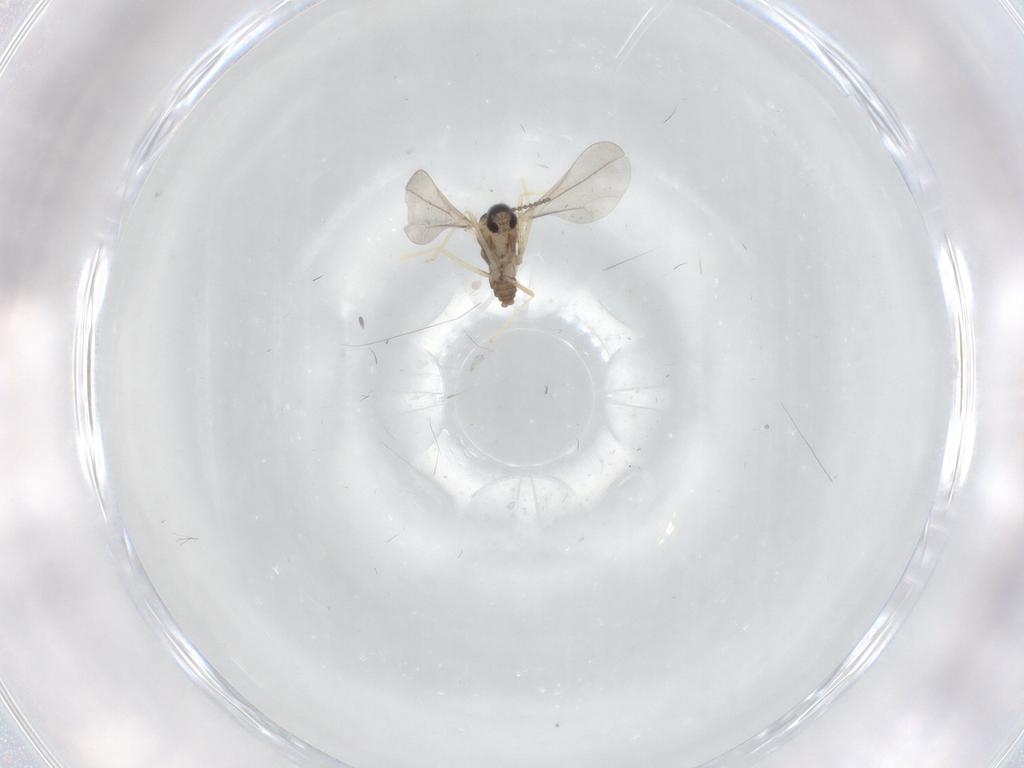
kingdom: Animalia
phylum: Arthropoda
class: Insecta
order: Diptera
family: Cecidomyiidae
